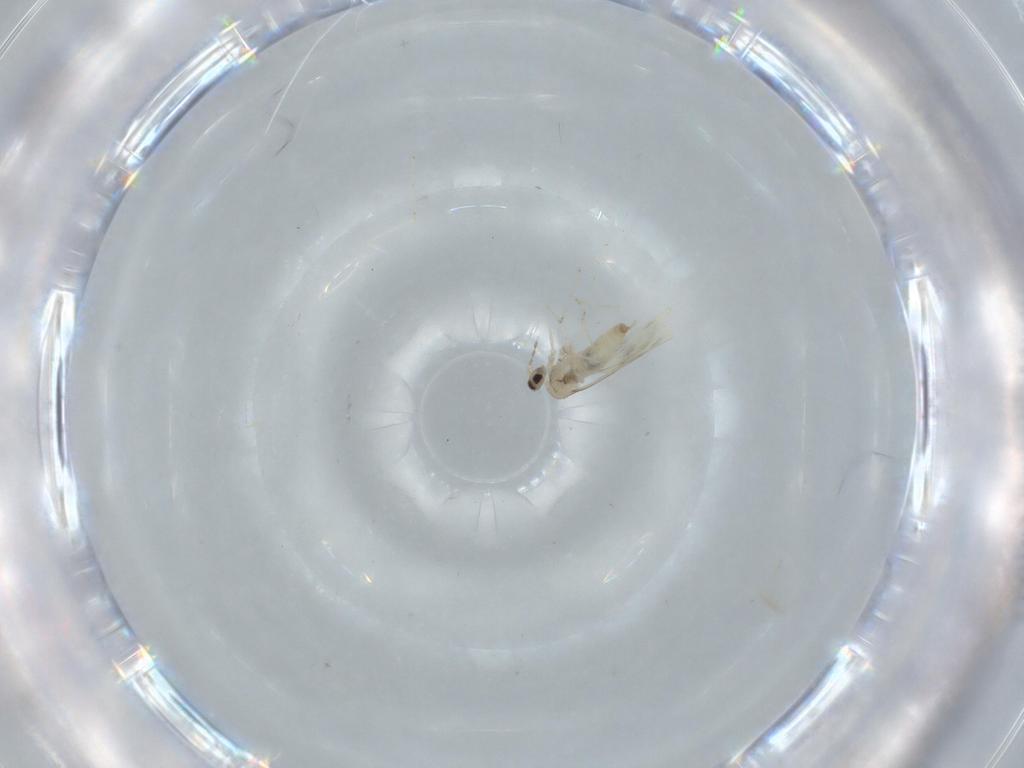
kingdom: Animalia
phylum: Arthropoda
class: Insecta
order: Diptera
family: Cecidomyiidae
